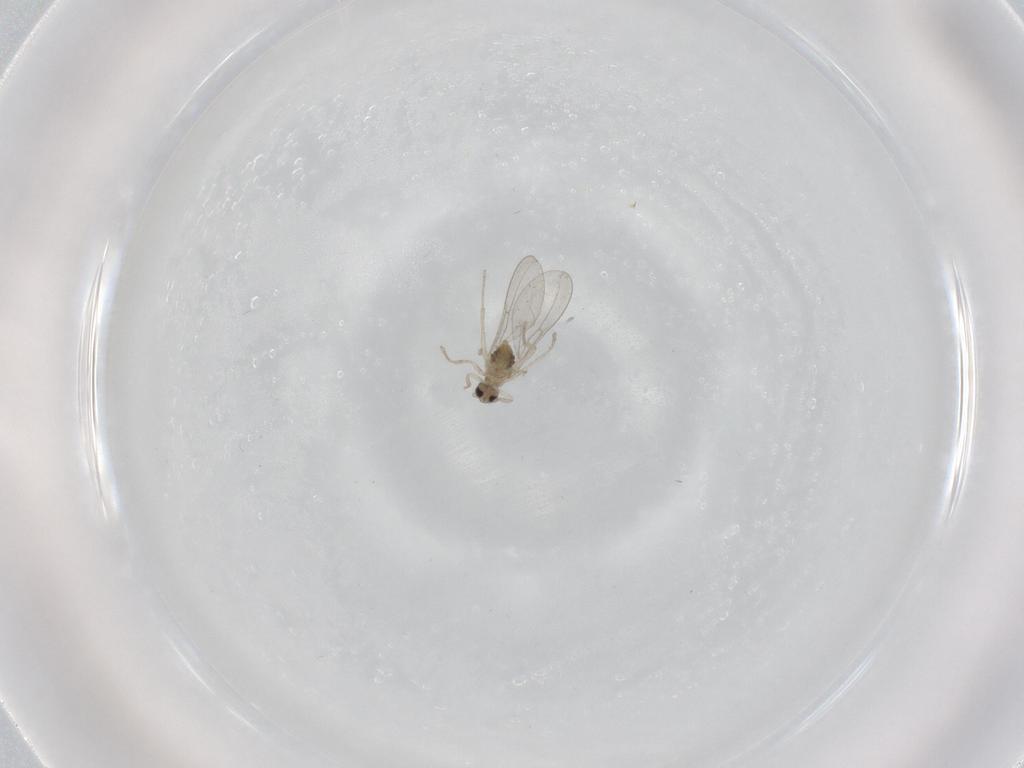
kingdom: Animalia
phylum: Arthropoda
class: Insecta
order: Diptera
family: Cecidomyiidae
